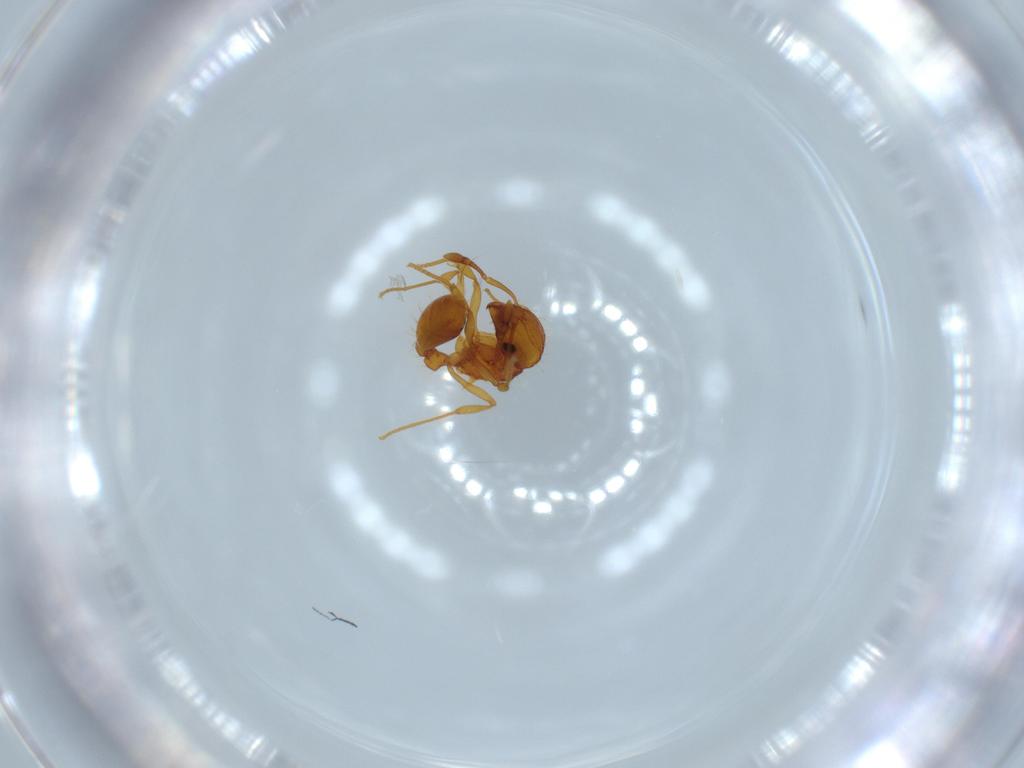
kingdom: Animalia
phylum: Arthropoda
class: Insecta
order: Hymenoptera
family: Formicidae
